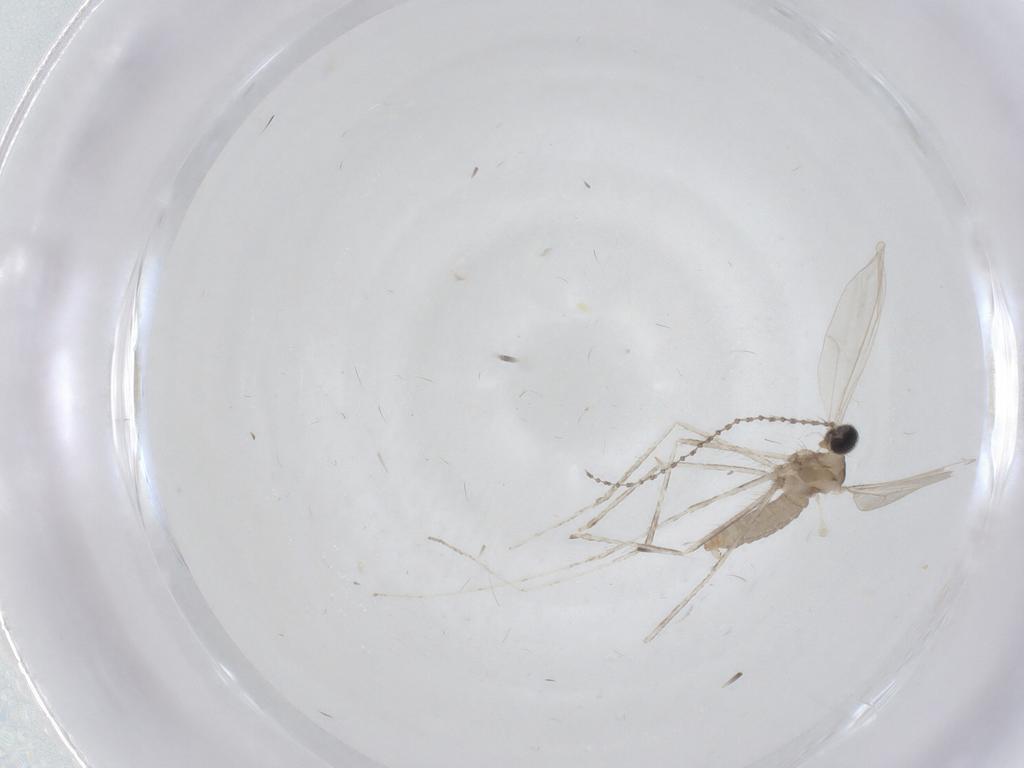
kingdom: Animalia
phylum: Arthropoda
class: Insecta
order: Diptera
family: Cecidomyiidae
